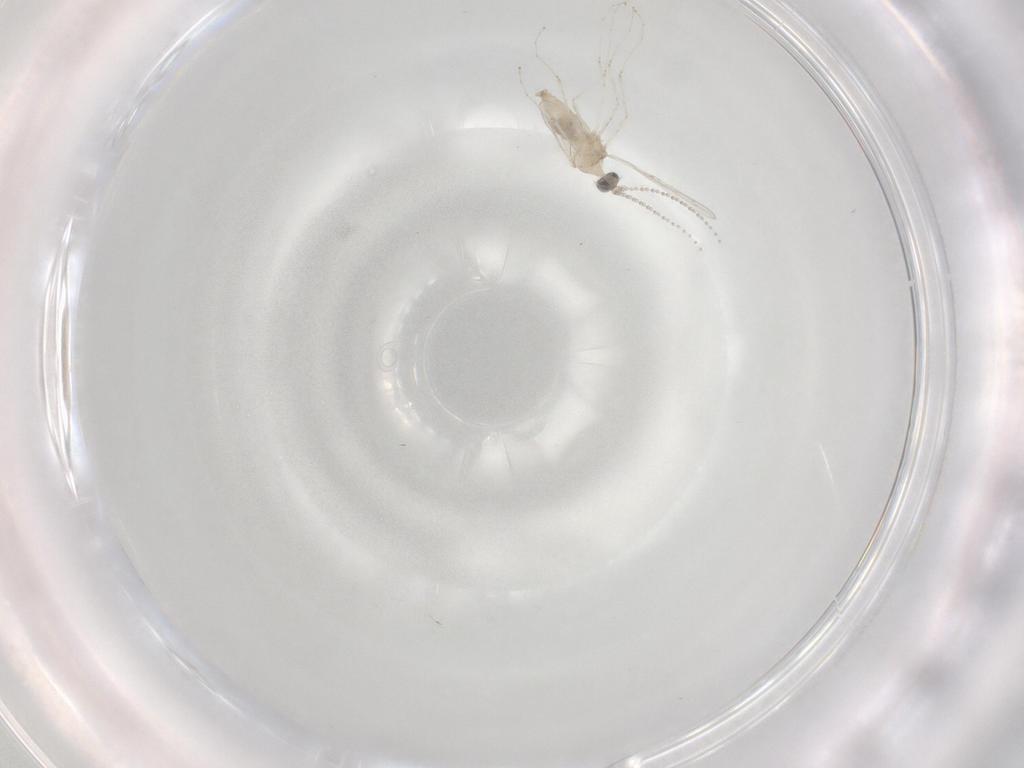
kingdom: Animalia
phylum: Arthropoda
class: Insecta
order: Diptera
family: Cecidomyiidae
